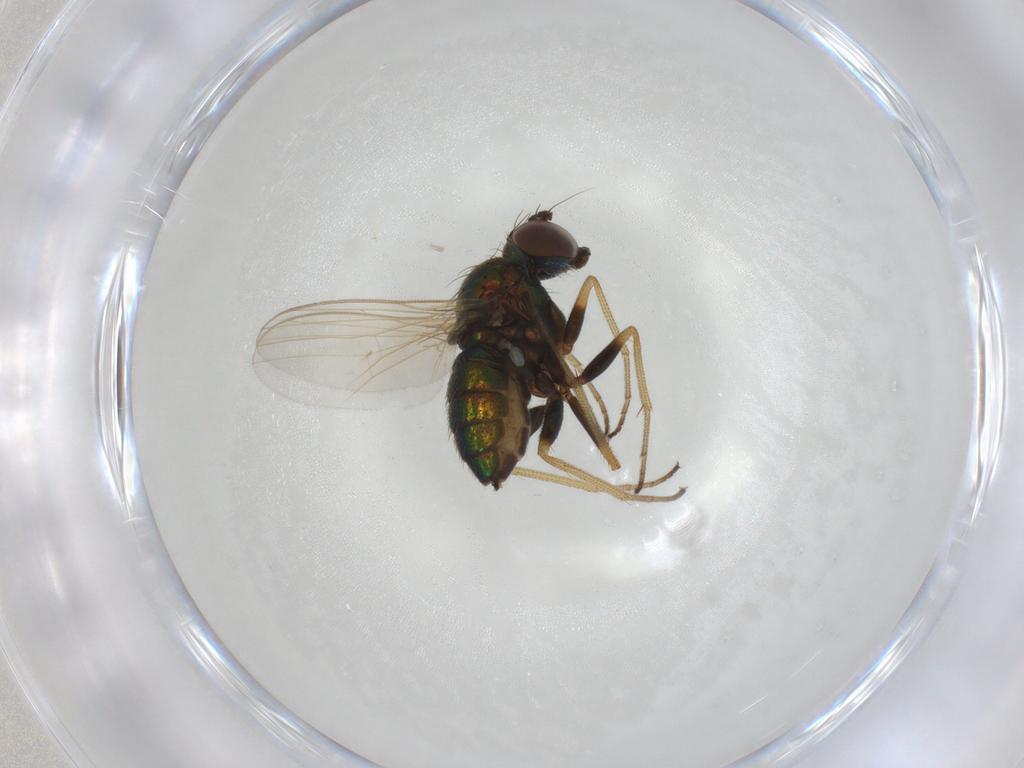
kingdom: Animalia
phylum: Arthropoda
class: Insecta
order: Diptera
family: Dolichopodidae
